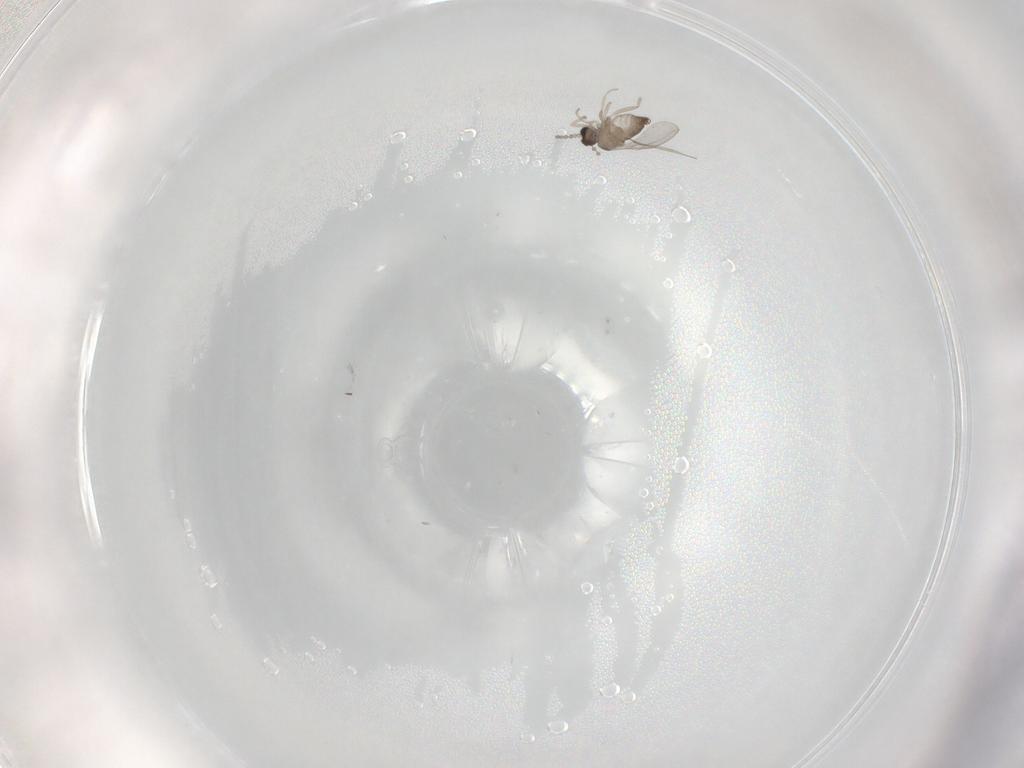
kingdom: Animalia
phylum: Arthropoda
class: Insecta
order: Diptera
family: Cecidomyiidae
